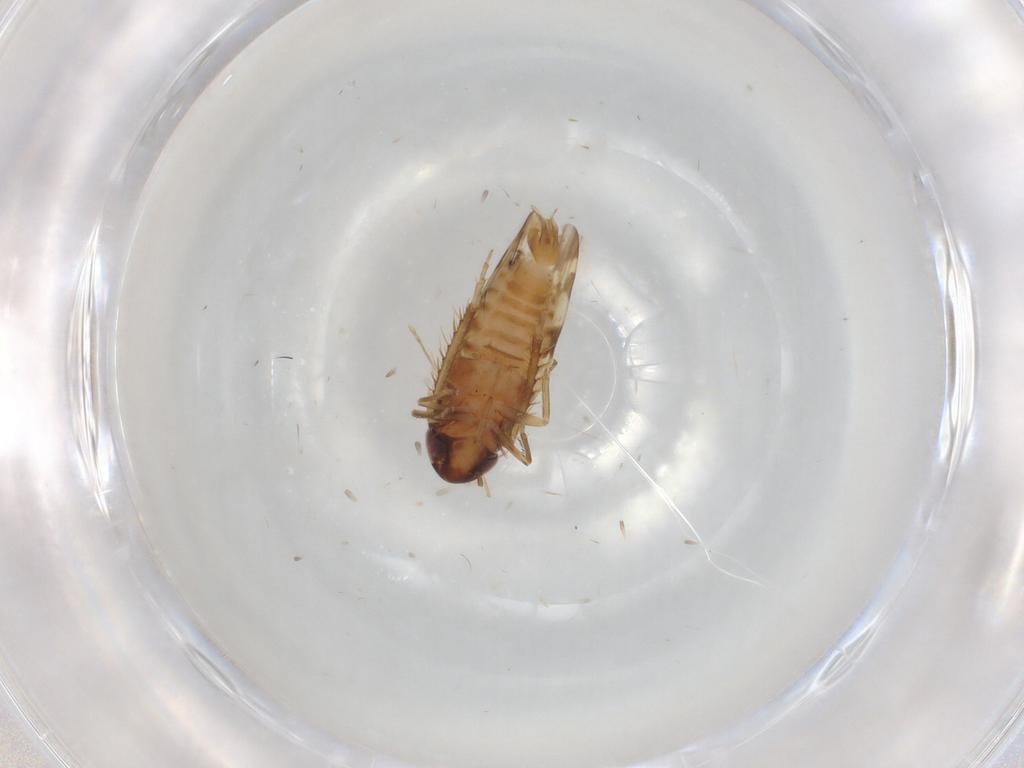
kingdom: Animalia
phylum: Arthropoda
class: Insecta
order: Hemiptera
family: Cicadellidae
